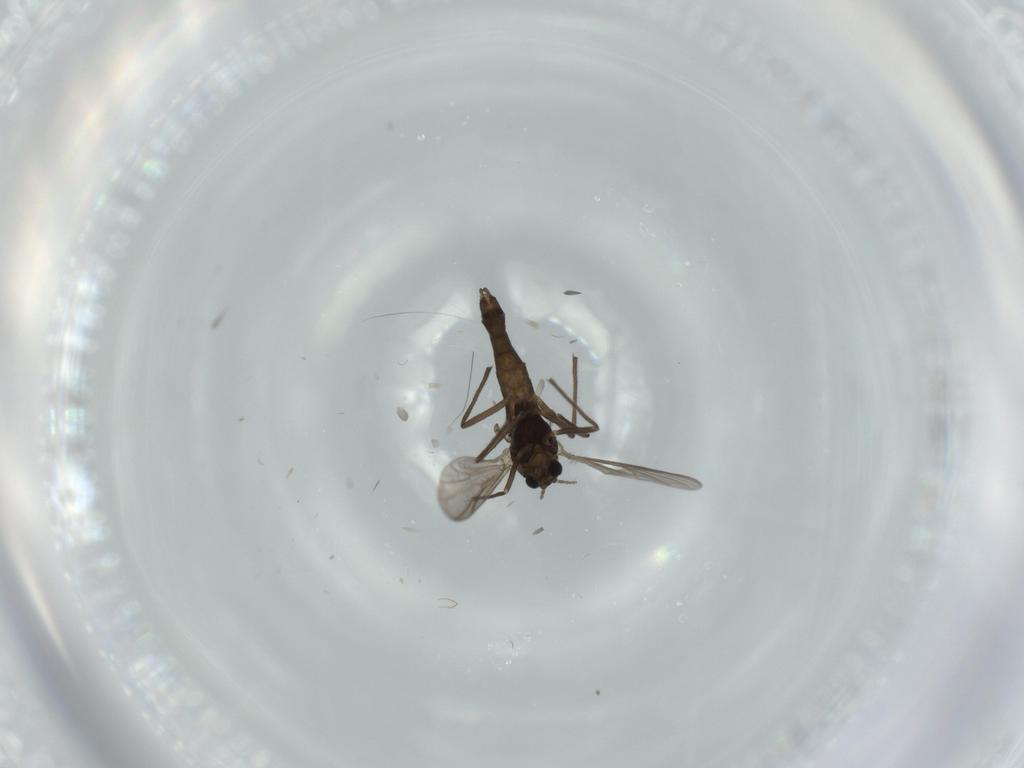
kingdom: Animalia
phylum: Arthropoda
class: Insecta
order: Diptera
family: Chironomidae
